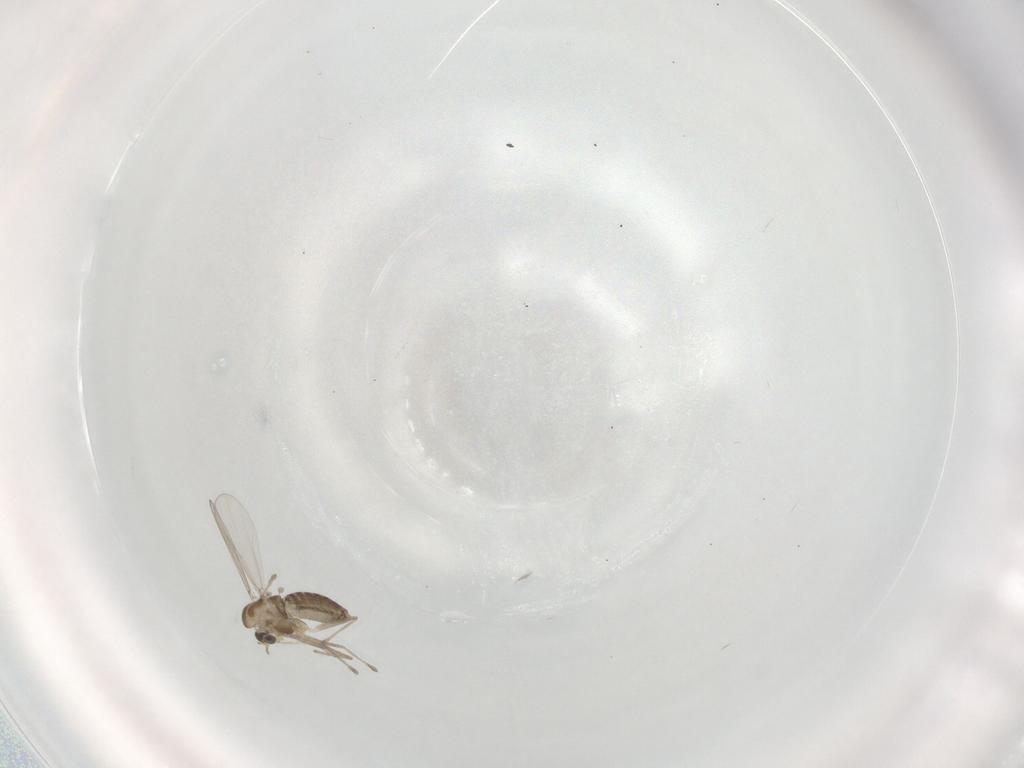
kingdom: Animalia
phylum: Arthropoda
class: Insecta
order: Diptera
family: Chironomidae
